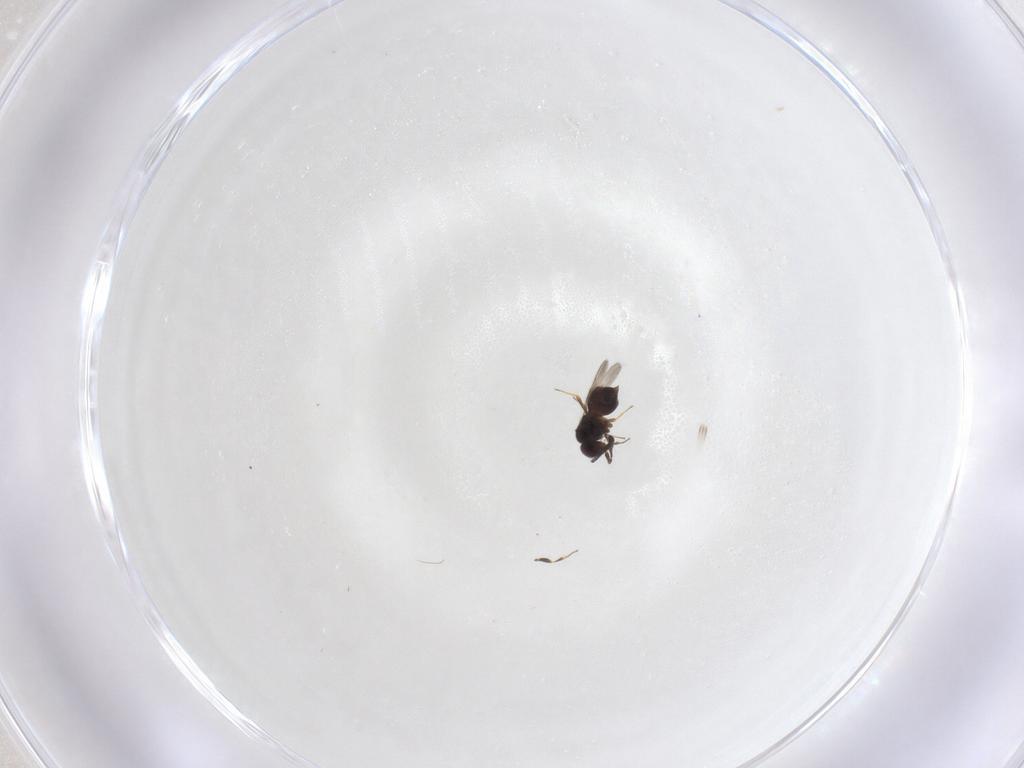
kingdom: Animalia
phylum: Arthropoda
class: Insecta
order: Hymenoptera
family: Cynipidae
